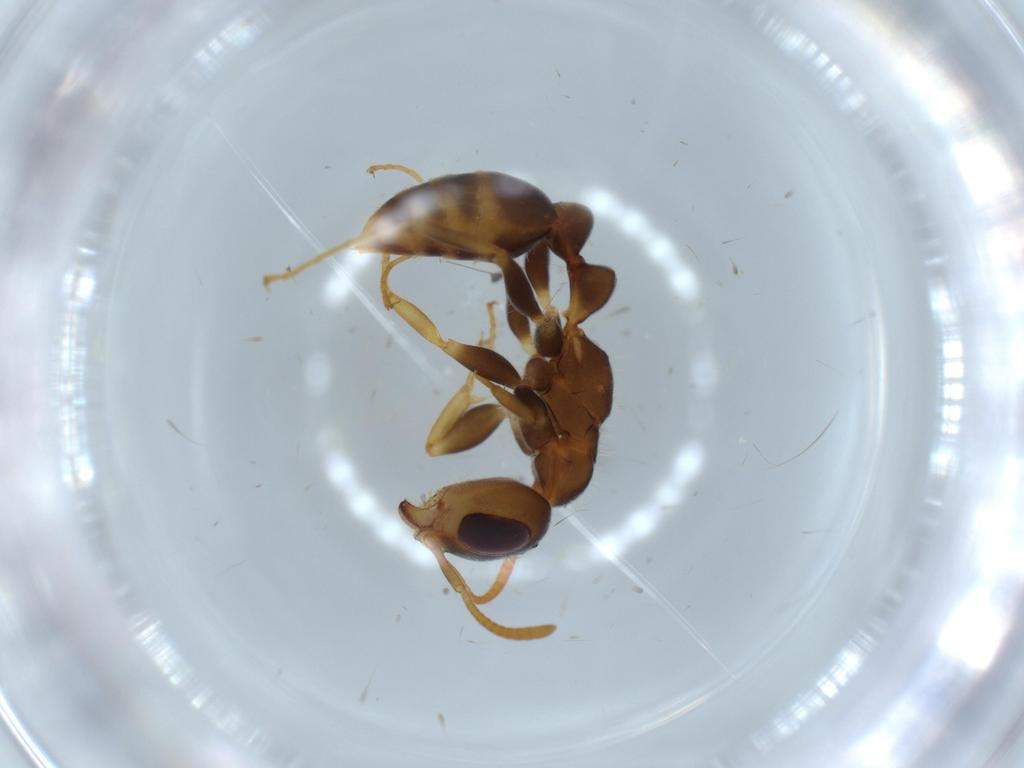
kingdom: Animalia
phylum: Arthropoda
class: Insecta
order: Hymenoptera
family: Formicidae
